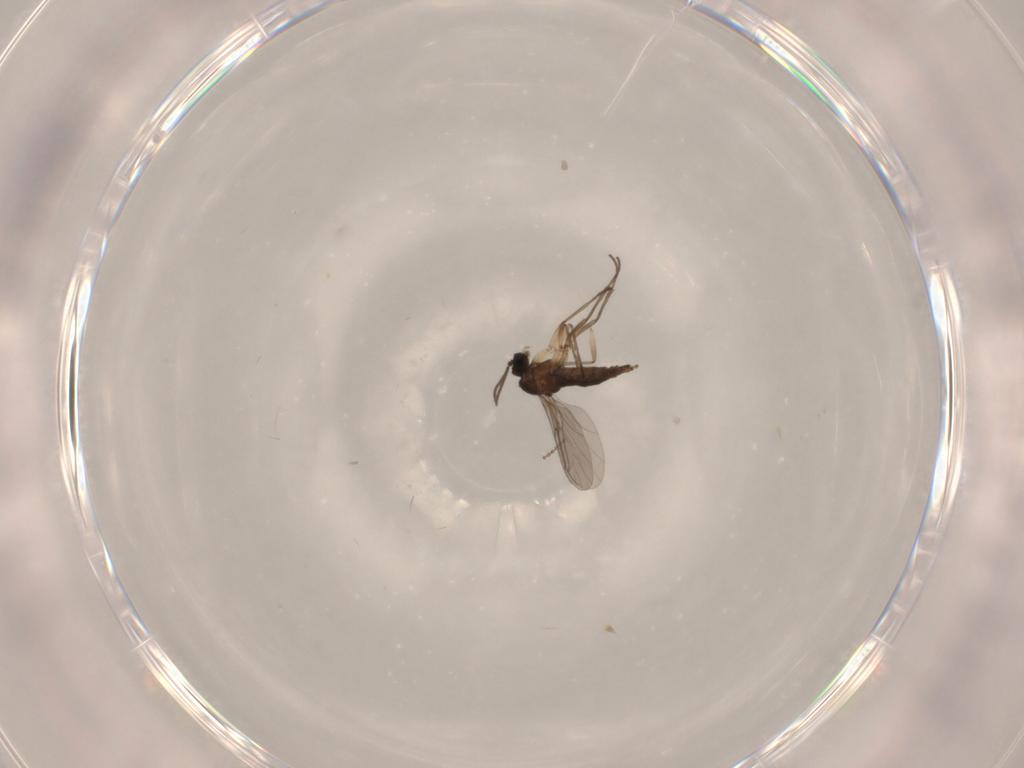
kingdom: Animalia
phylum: Arthropoda
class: Insecta
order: Diptera
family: Sciaridae
